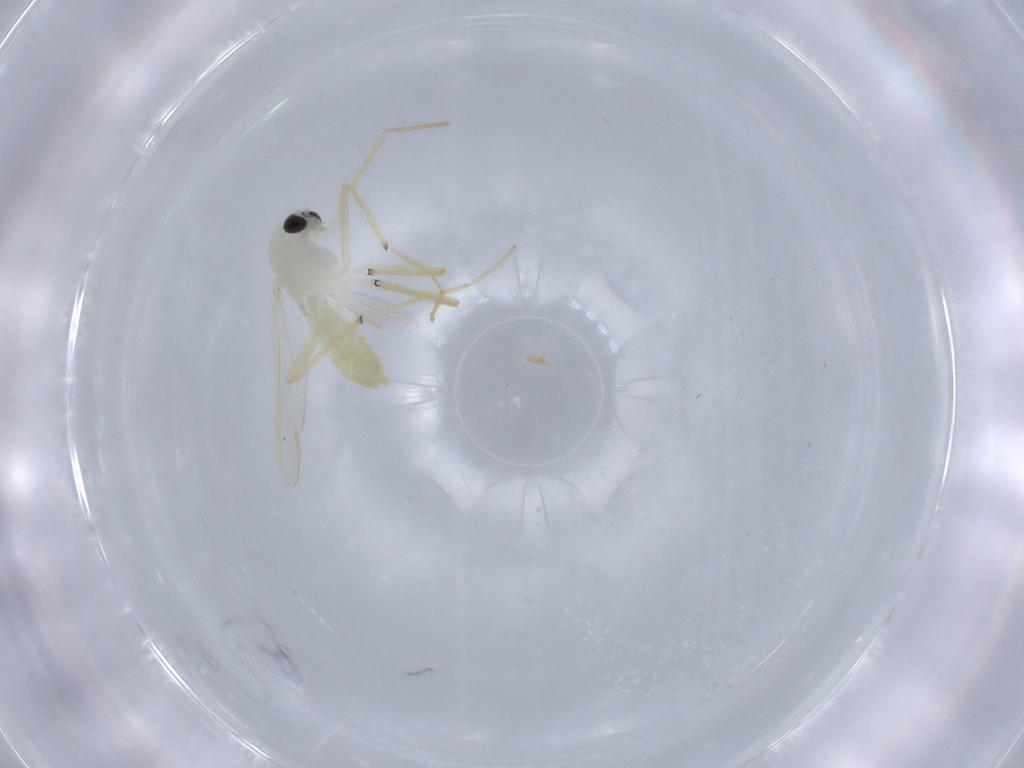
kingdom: Animalia
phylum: Arthropoda
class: Insecta
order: Diptera
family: Chironomidae
